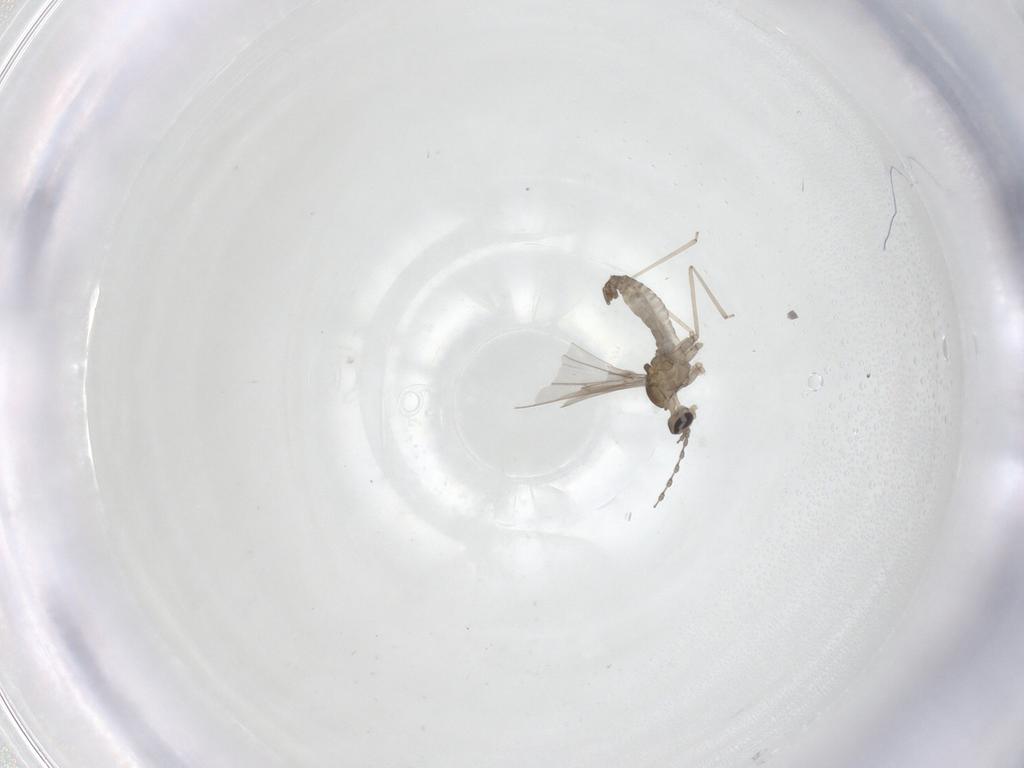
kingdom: Animalia
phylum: Arthropoda
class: Insecta
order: Diptera
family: Cecidomyiidae
